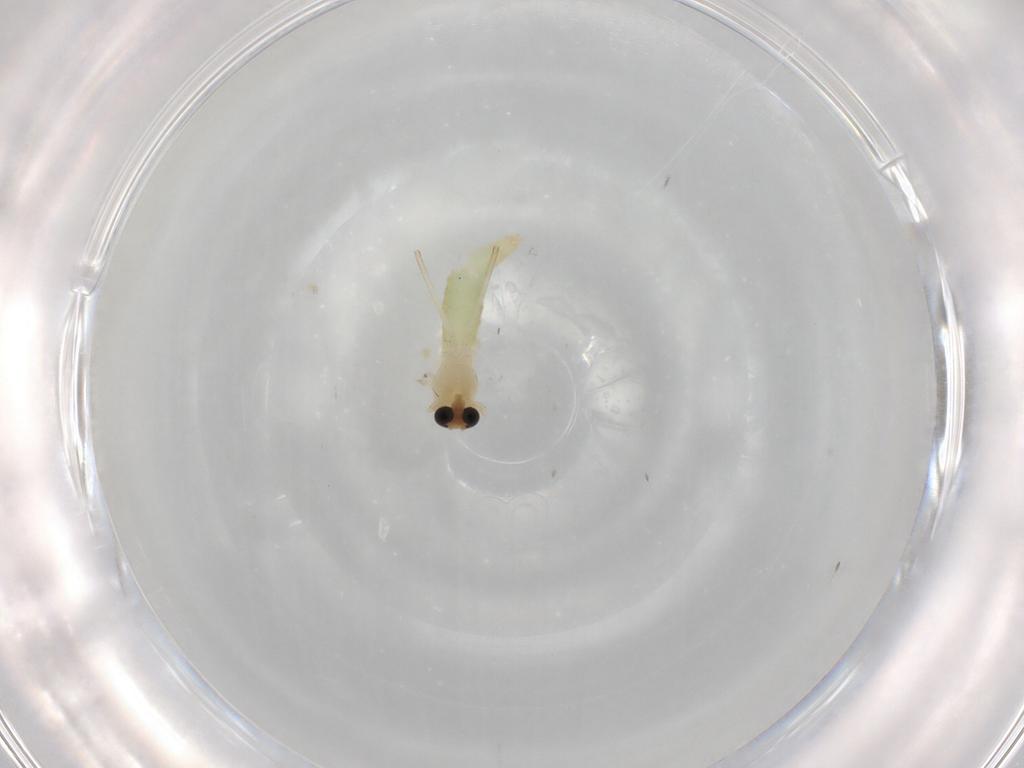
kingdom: Animalia
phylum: Arthropoda
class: Insecta
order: Diptera
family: Chironomidae
